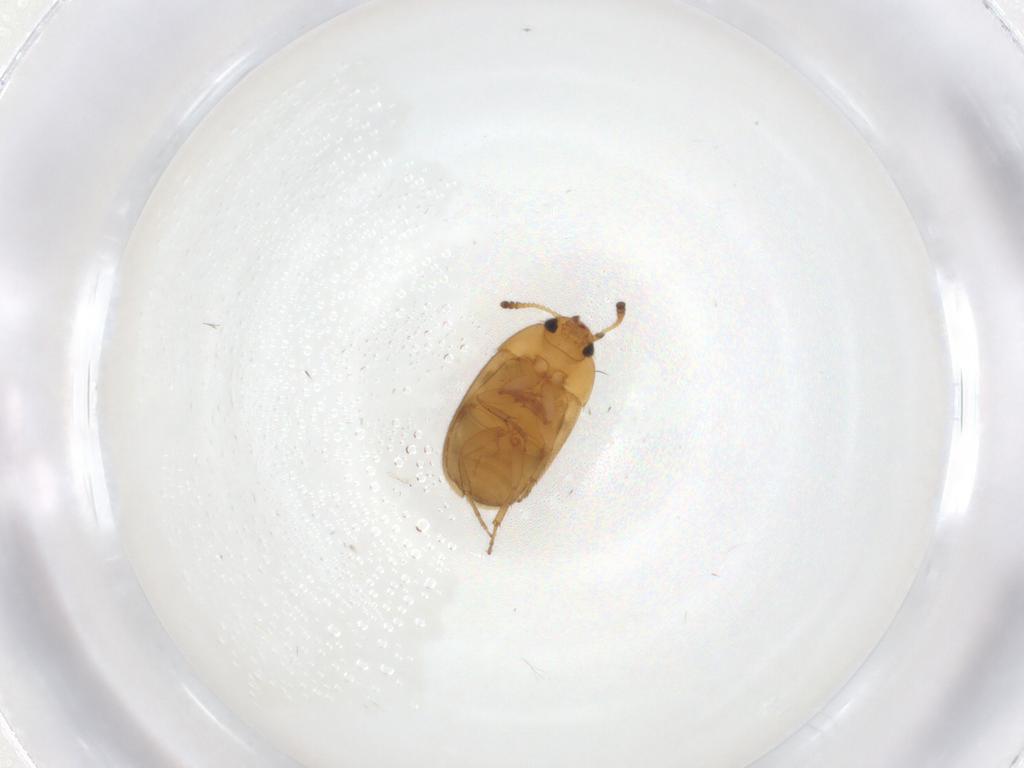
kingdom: Animalia
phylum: Arthropoda
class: Insecta
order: Coleoptera
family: Mycetophagidae
